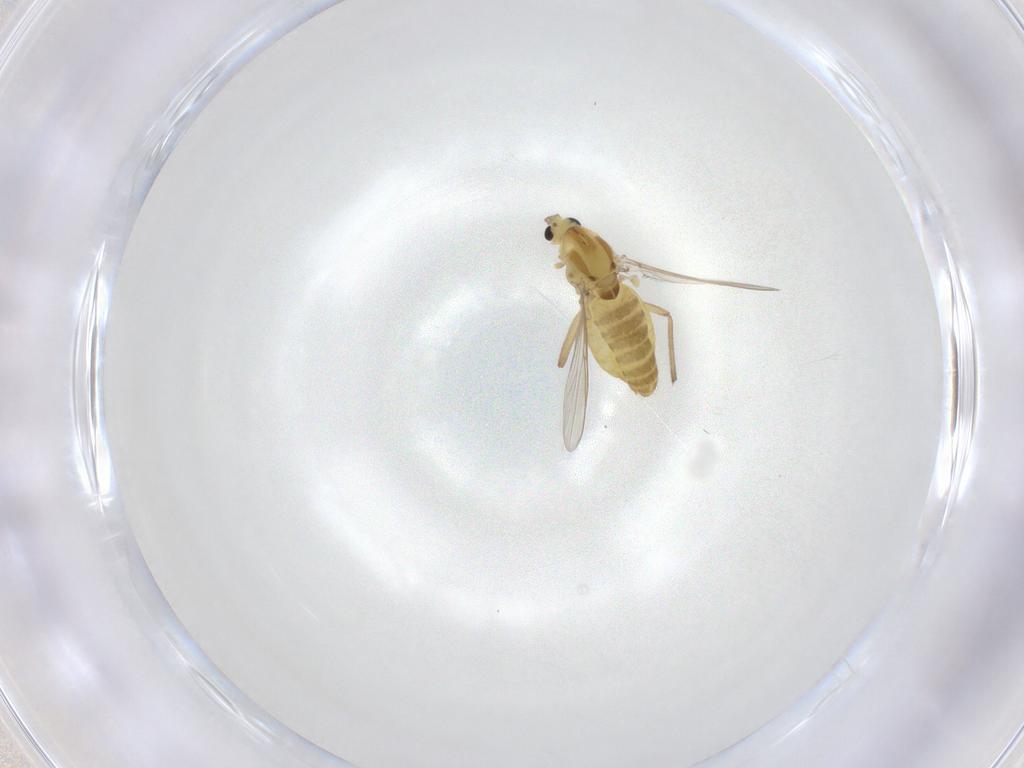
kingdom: Animalia
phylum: Arthropoda
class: Insecta
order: Diptera
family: Chironomidae
